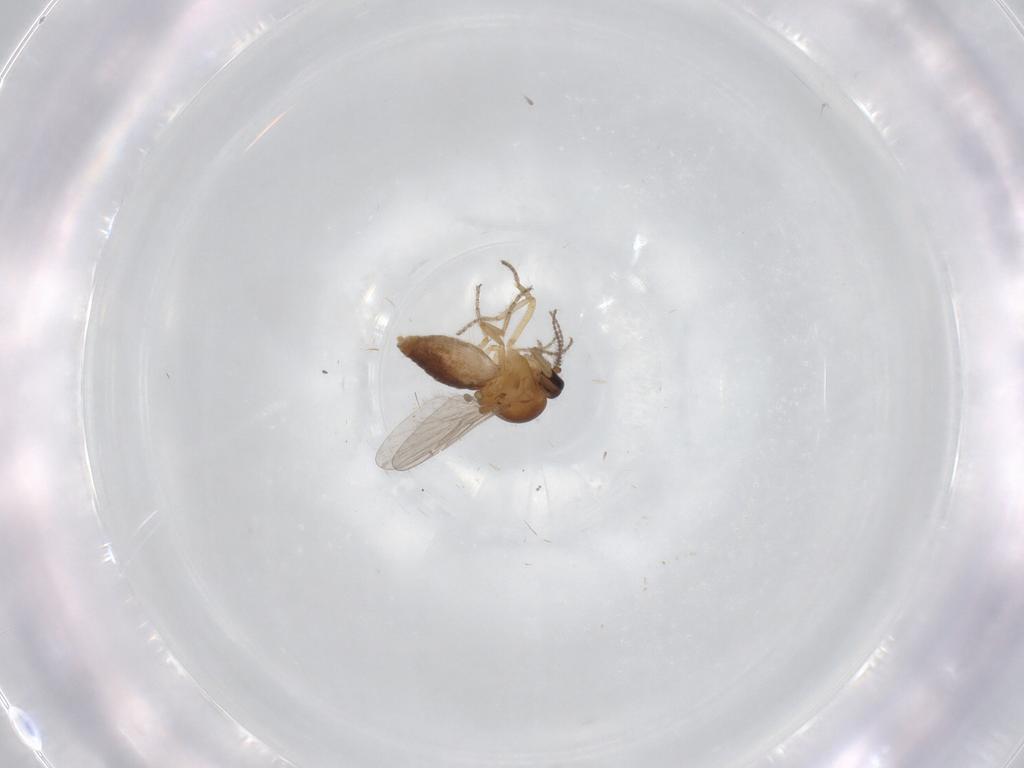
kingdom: Animalia
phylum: Arthropoda
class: Insecta
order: Diptera
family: Ceratopogonidae
